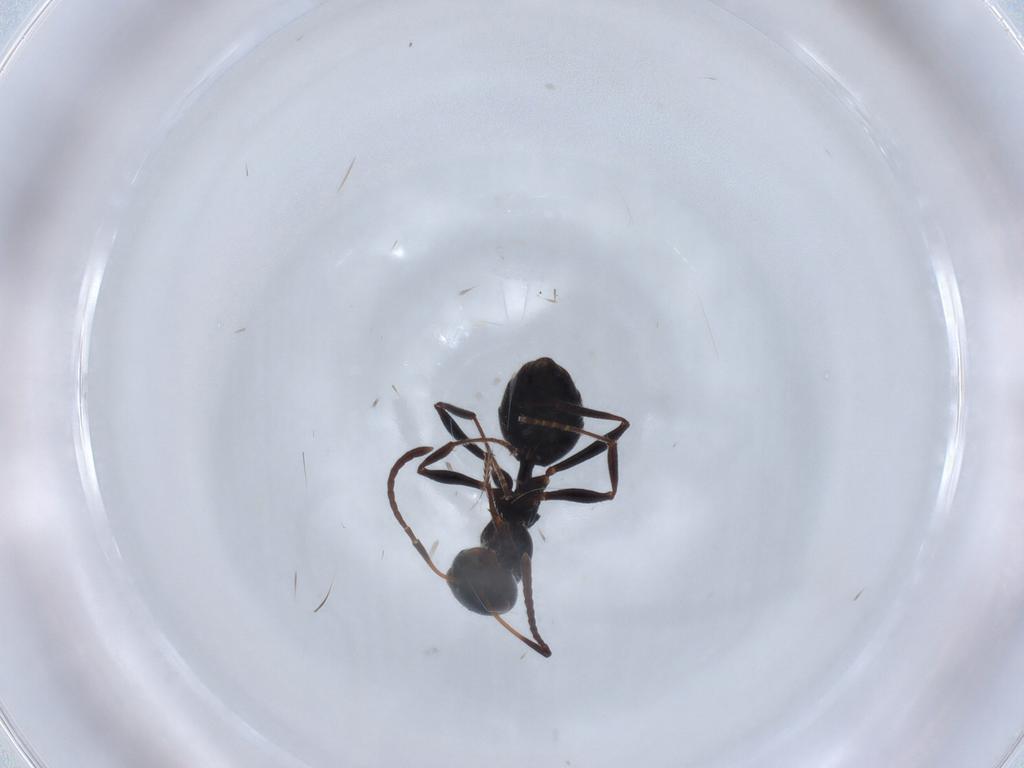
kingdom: Animalia
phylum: Arthropoda
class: Insecta
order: Hymenoptera
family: Formicidae
